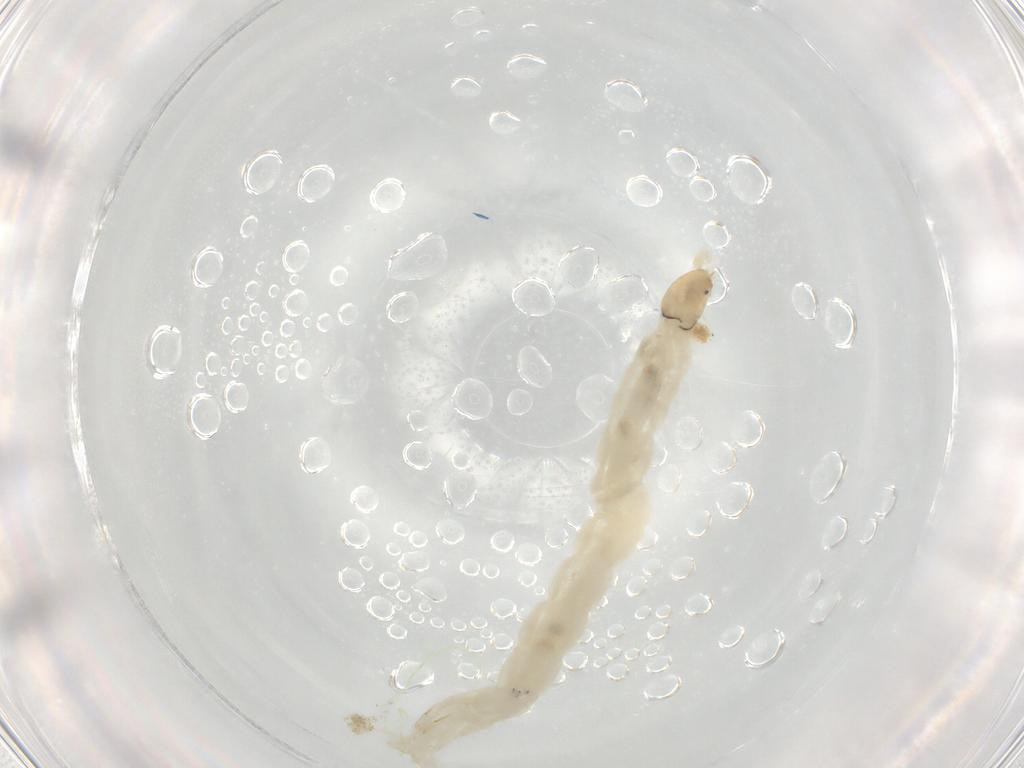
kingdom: Animalia
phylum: Arthropoda
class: Insecta
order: Diptera
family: Chironomidae
